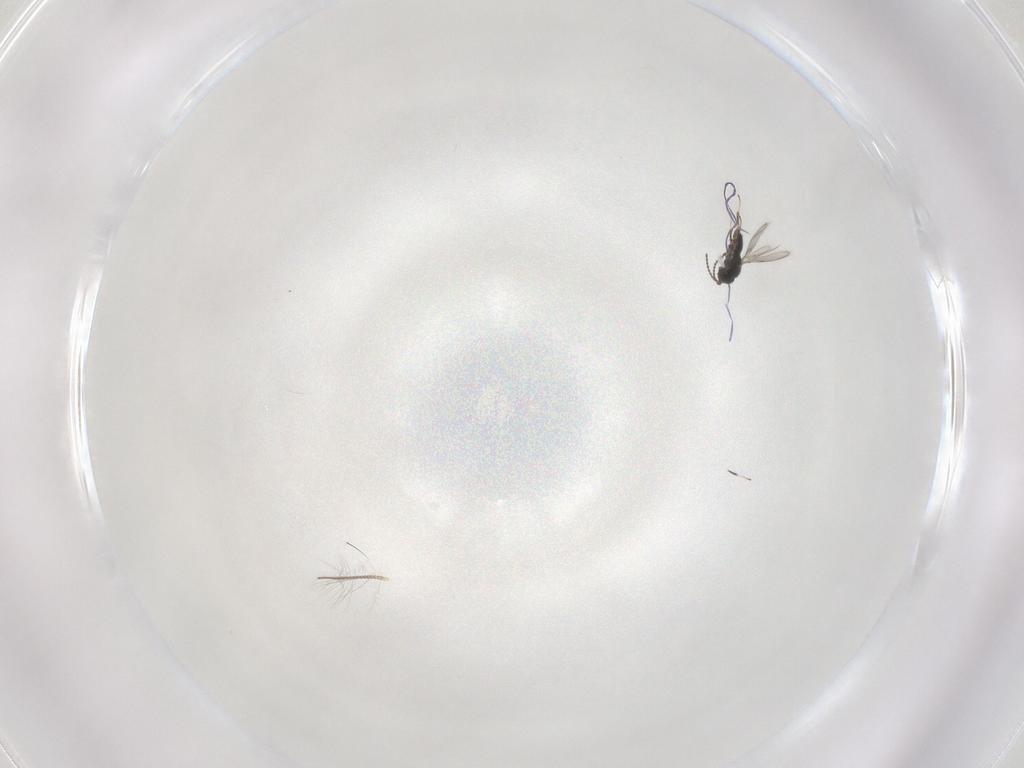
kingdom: Animalia
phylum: Arthropoda
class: Insecta
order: Hymenoptera
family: Scelionidae
